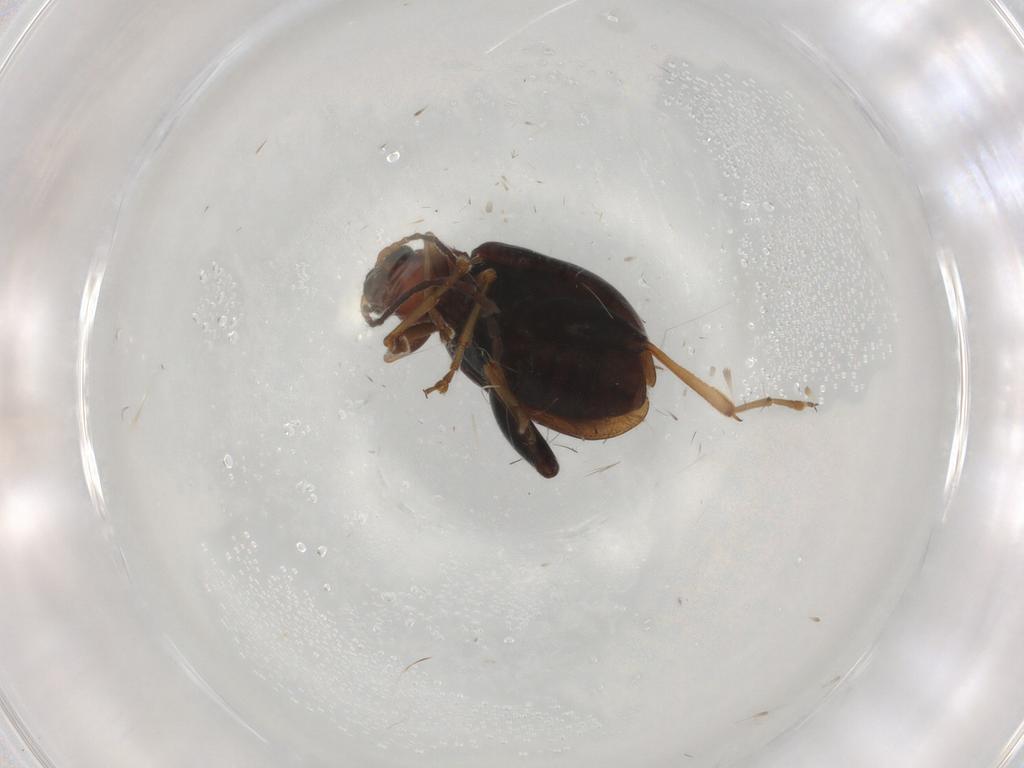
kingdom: Animalia
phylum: Arthropoda
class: Insecta
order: Coleoptera
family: Chrysomelidae
